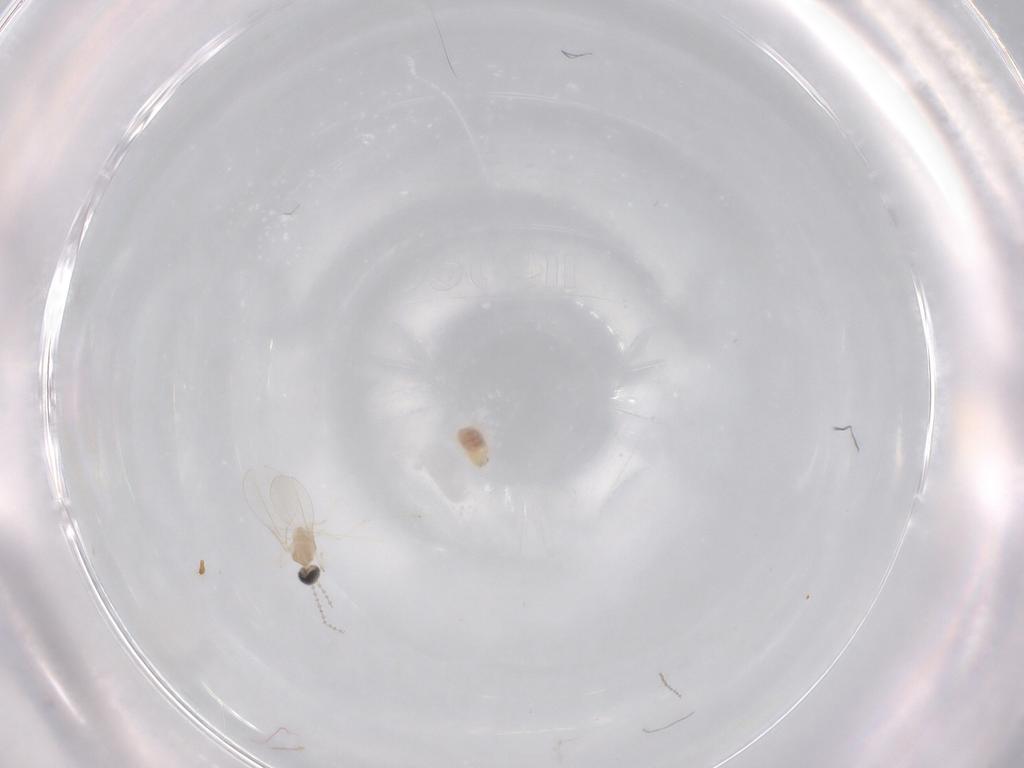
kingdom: Animalia
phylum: Arthropoda
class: Insecta
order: Diptera
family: Cecidomyiidae
